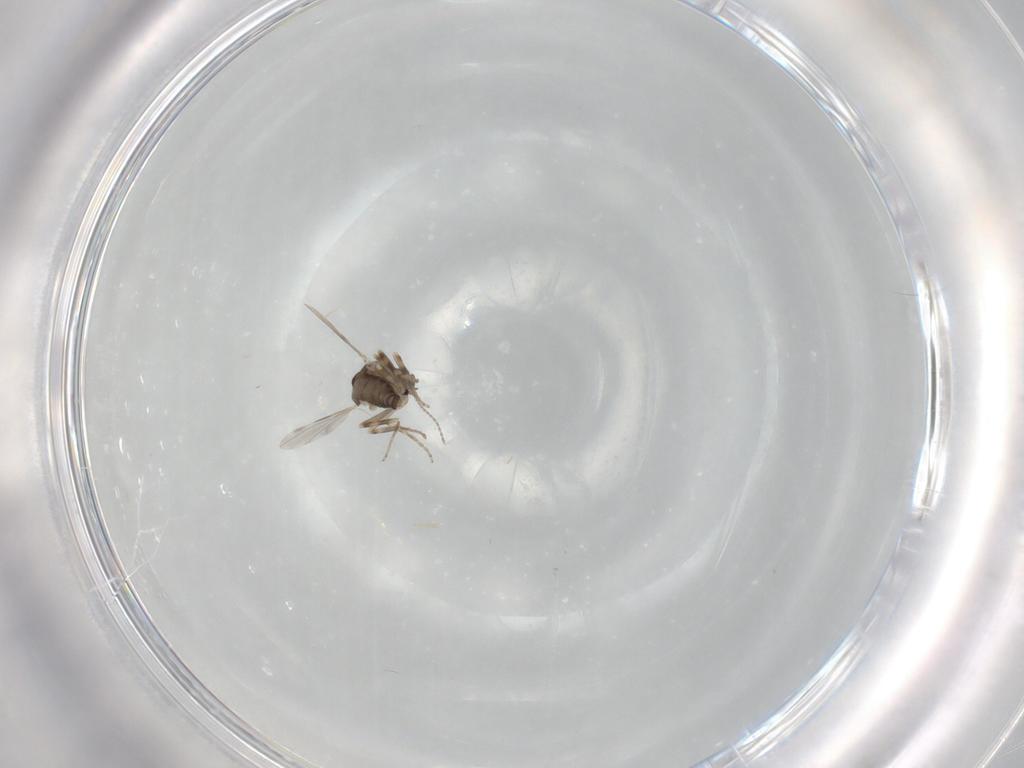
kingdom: Animalia
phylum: Arthropoda
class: Insecta
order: Diptera
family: Ceratopogonidae
